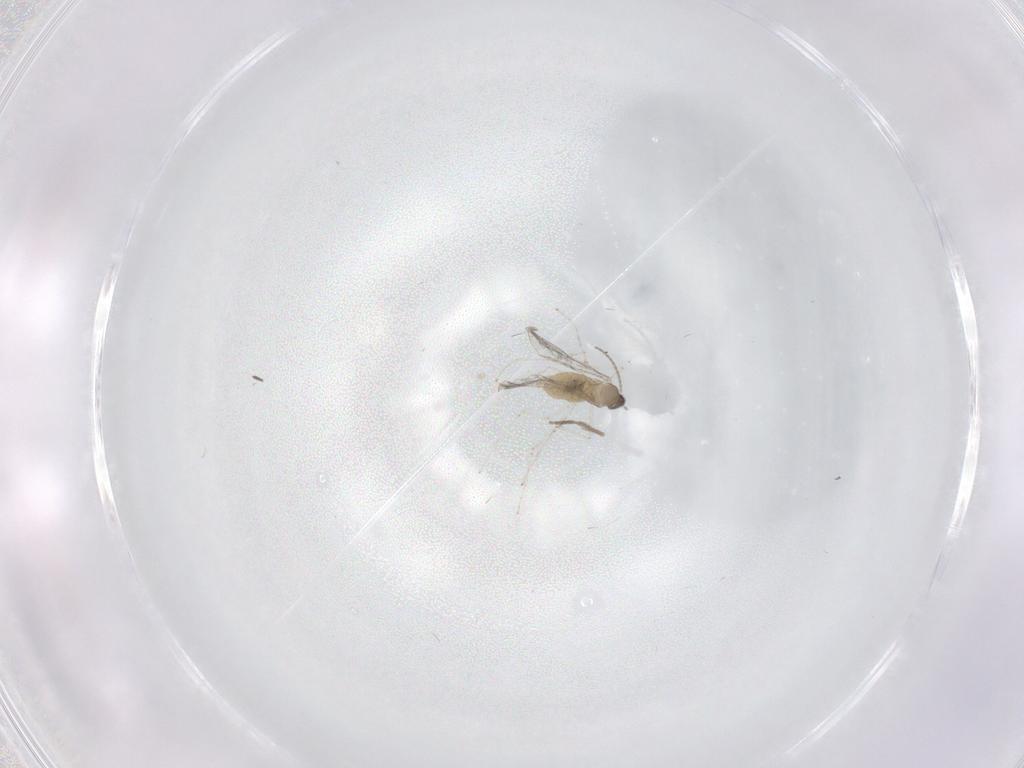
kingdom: Animalia
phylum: Arthropoda
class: Insecta
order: Diptera
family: Cecidomyiidae
